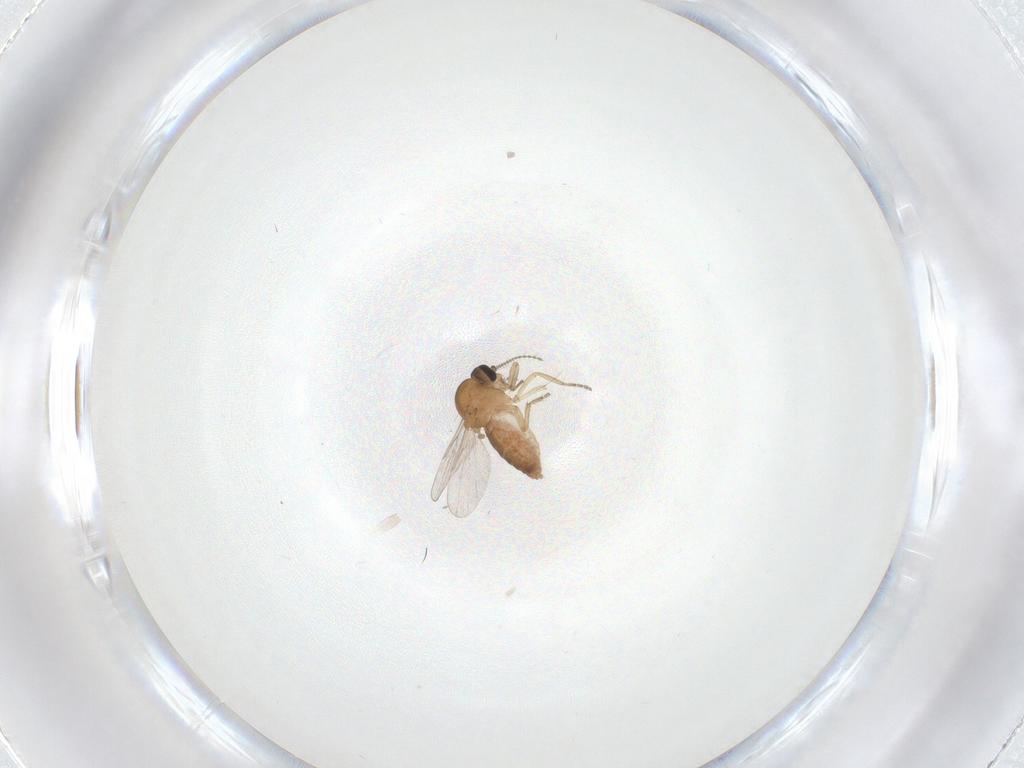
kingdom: Animalia
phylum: Arthropoda
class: Insecta
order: Diptera
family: Ceratopogonidae
